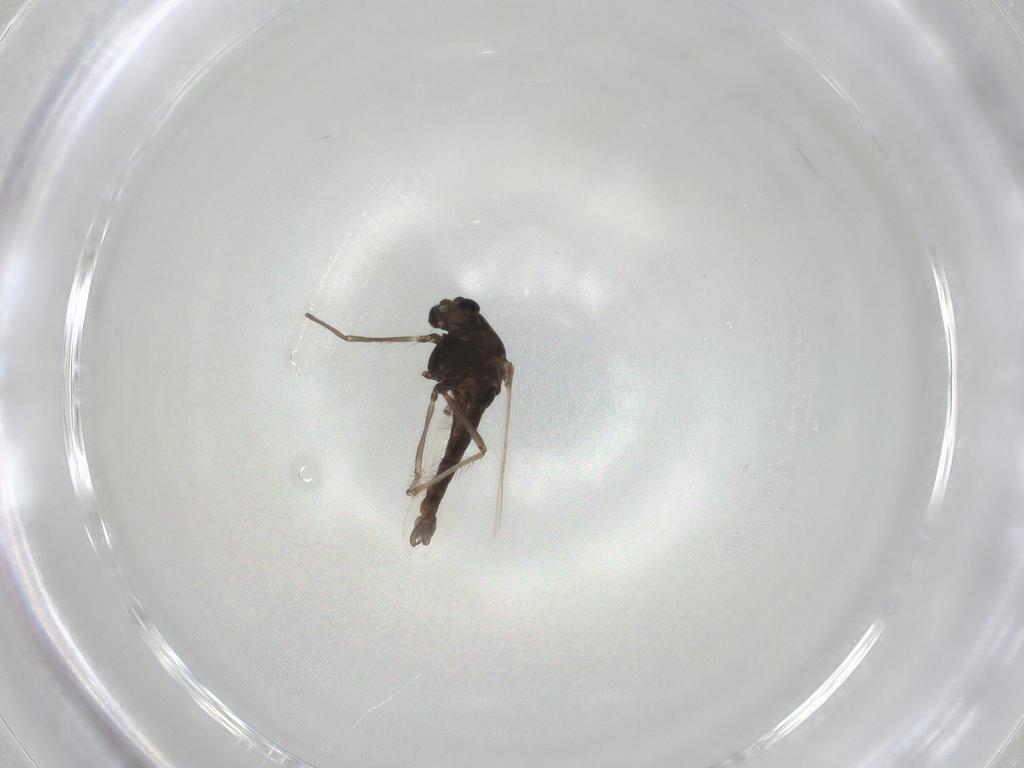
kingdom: Animalia
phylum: Arthropoda
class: Insecta
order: Diptera
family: Chironomidae
